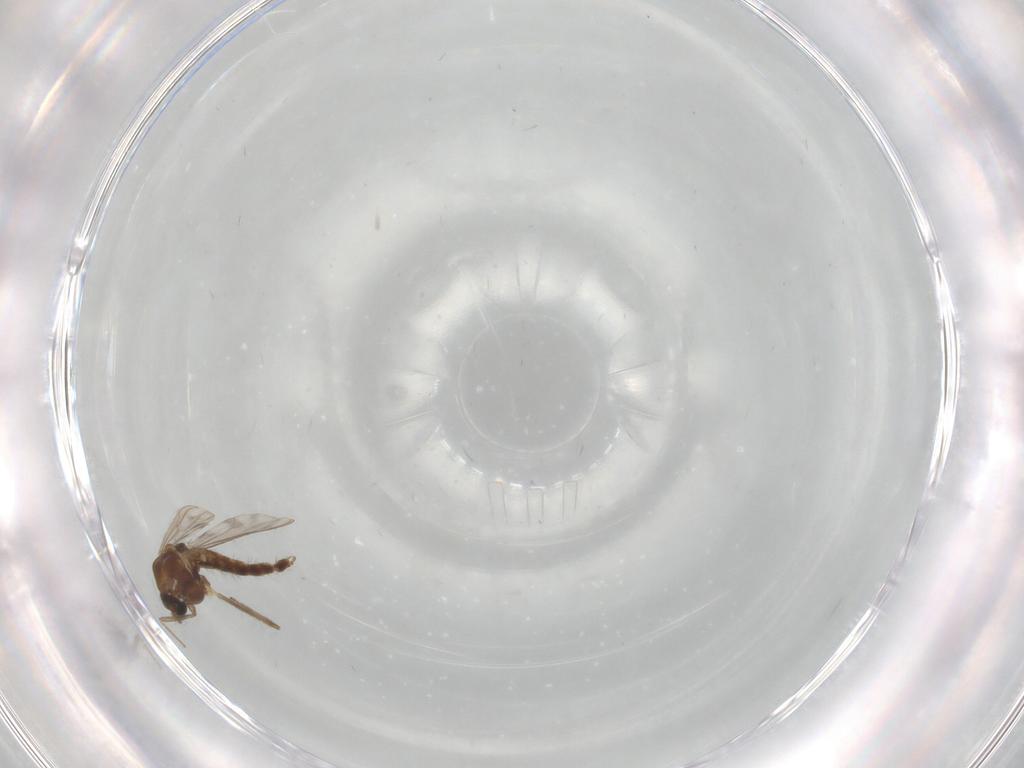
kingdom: Animalia
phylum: Arthropoda
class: Insecta
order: Diptera
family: Chironomidae
